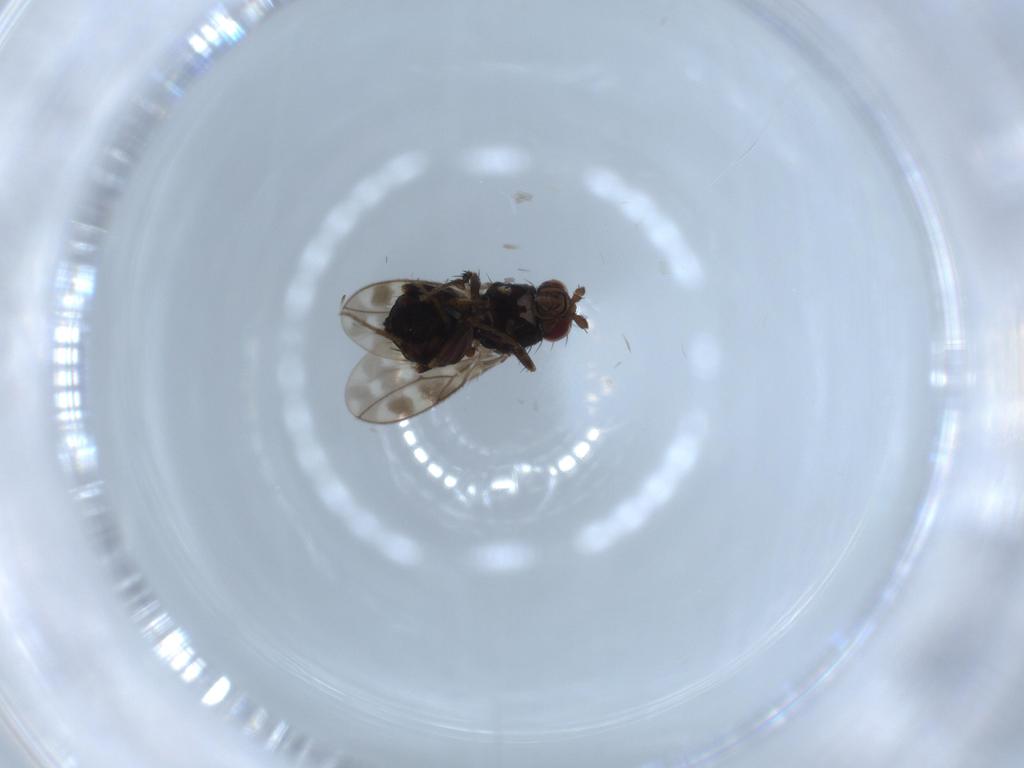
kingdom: Animalia
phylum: Arthropoda
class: Insecta
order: Diptera
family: Sphaeroceridae
